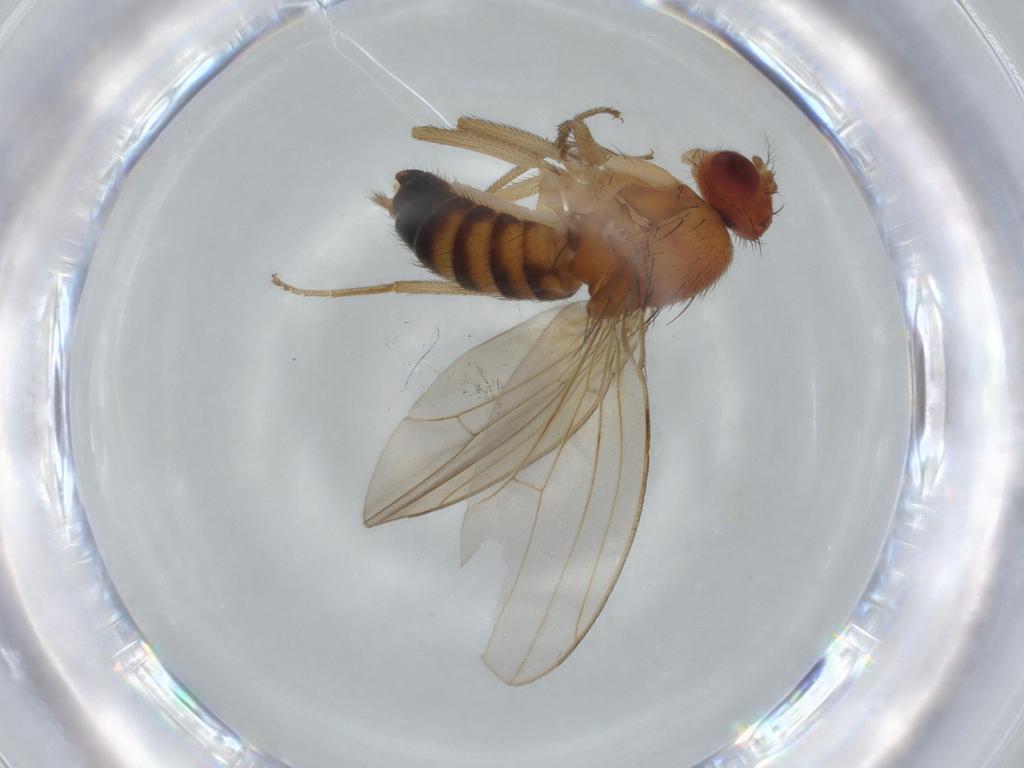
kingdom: Animalia
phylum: Arthropoda
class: Insecta
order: Diptera
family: Drosophilidae
